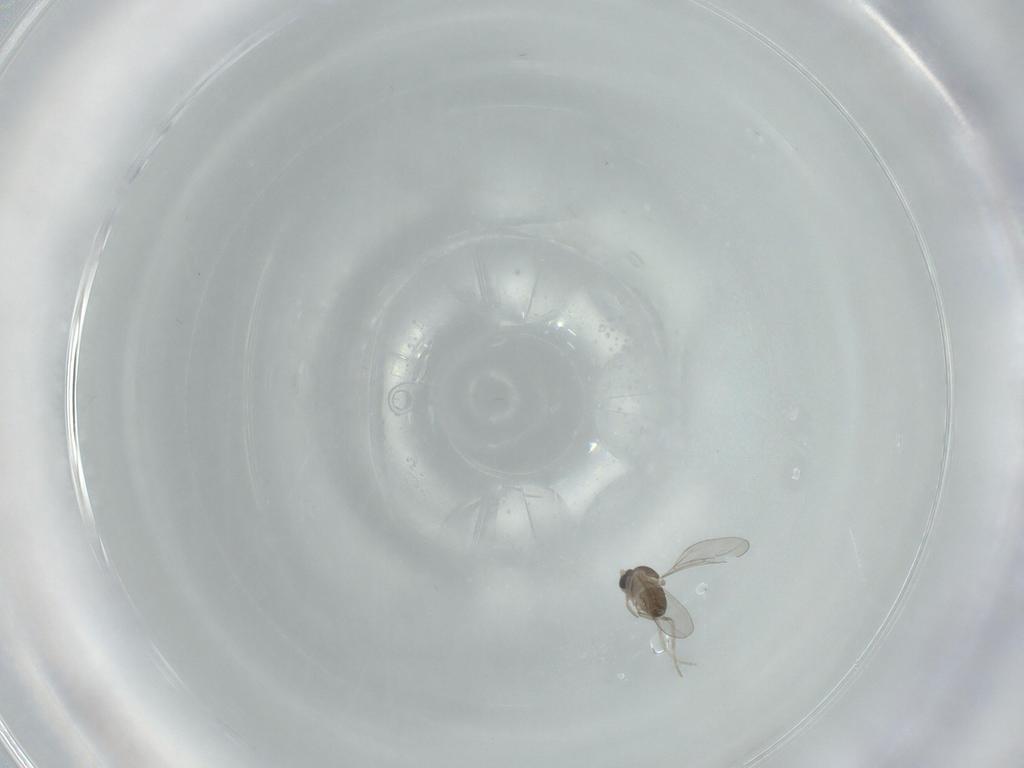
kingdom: Animalia
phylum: Arthropoda
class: Insecta
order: Diptera
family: Cecidomyiidae
